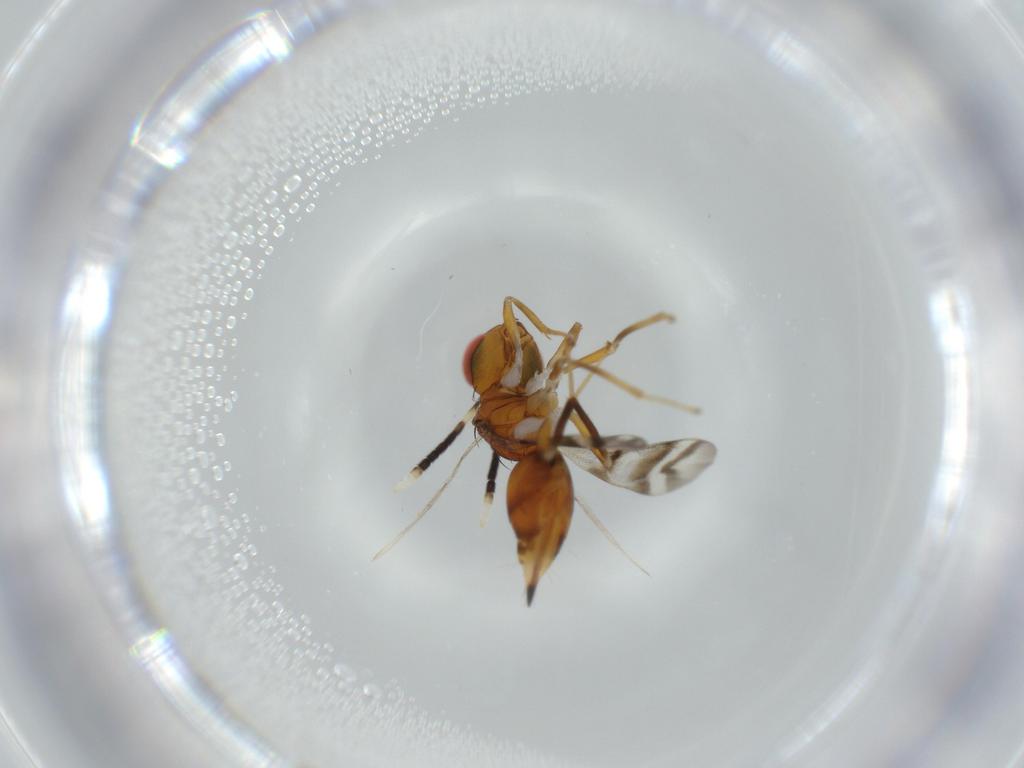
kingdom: Animalia
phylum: Arthropoda
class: Insecta
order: Hymenoptera
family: Diparidae
